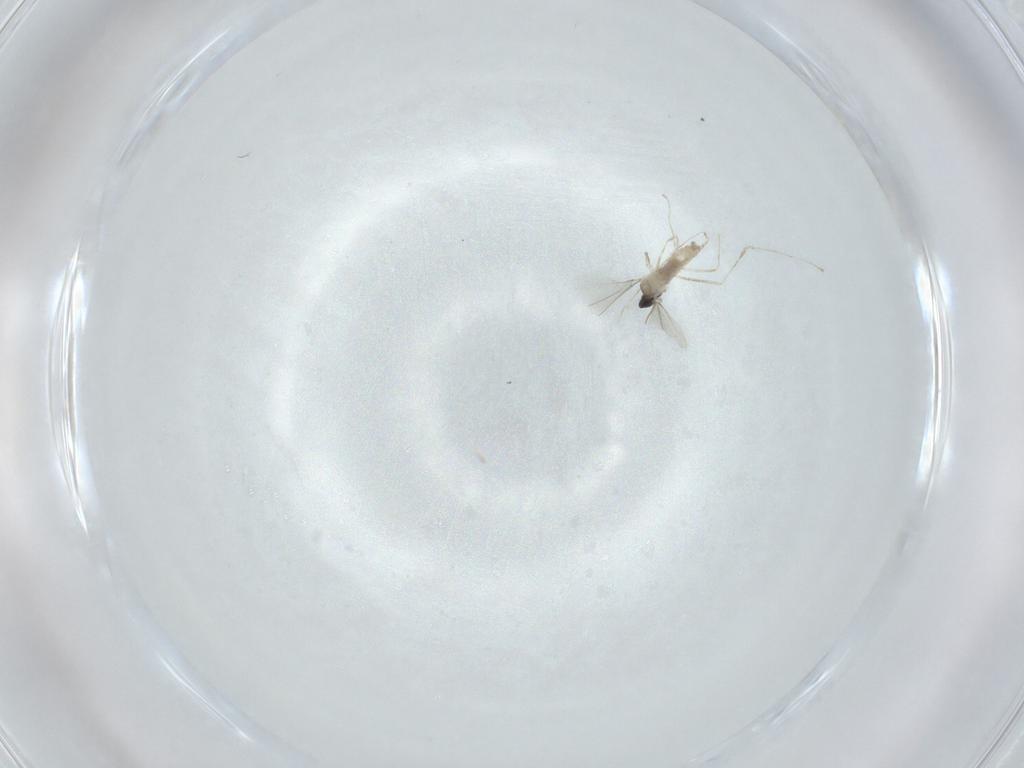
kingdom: Animalia
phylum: Arthropoda
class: Insecta
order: Diptera
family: Cecidomyiidae
